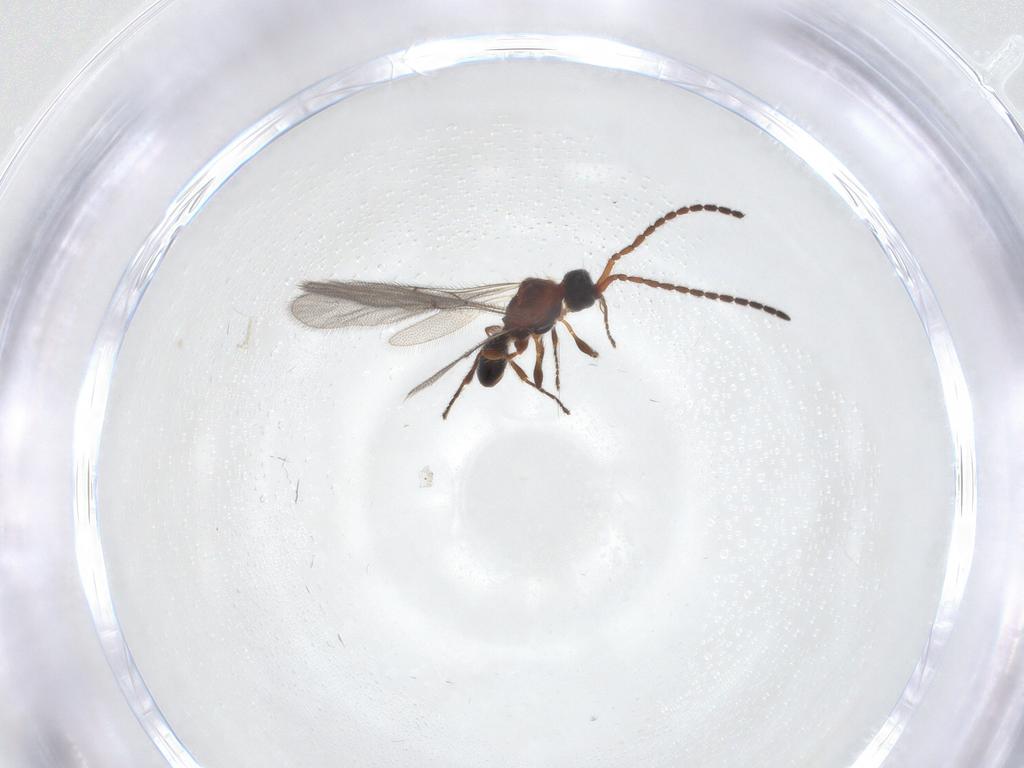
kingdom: Animalia
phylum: Arthropoda
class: Insecta
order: Hymenoptera
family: Diapriidae
